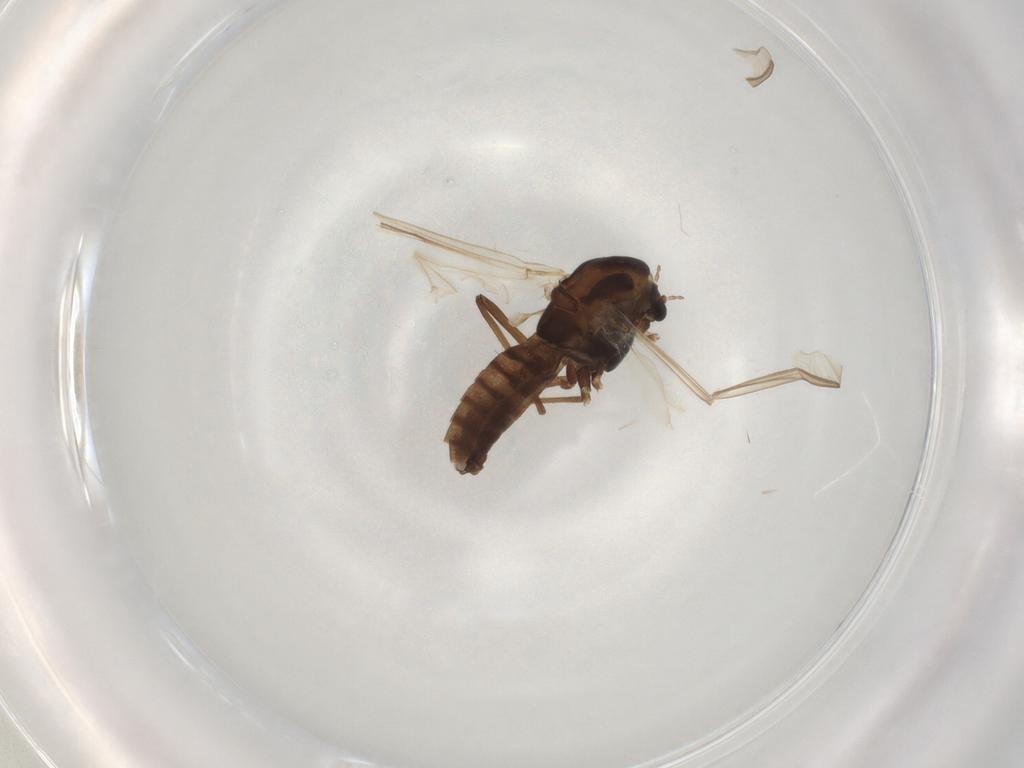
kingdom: Animalia
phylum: Arthropoda
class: Insecta
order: Diptera
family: Chironomidae
